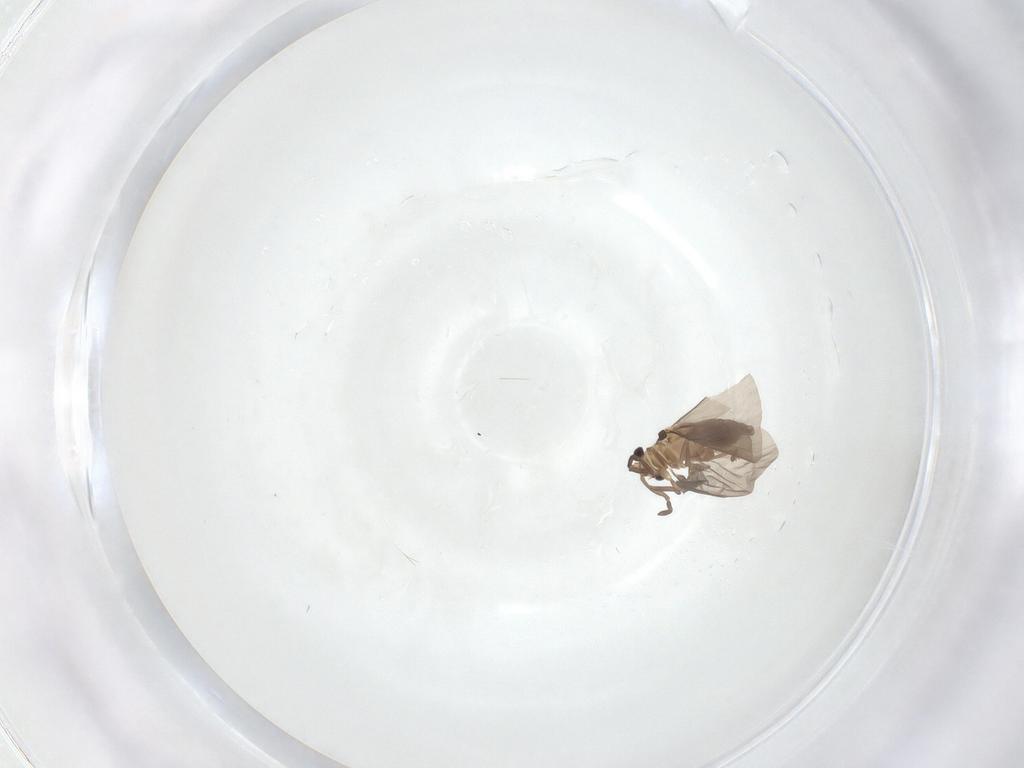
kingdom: Animalia
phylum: Arthropoda
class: Insecta
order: Strepsiptera
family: Myrmecolacidae
